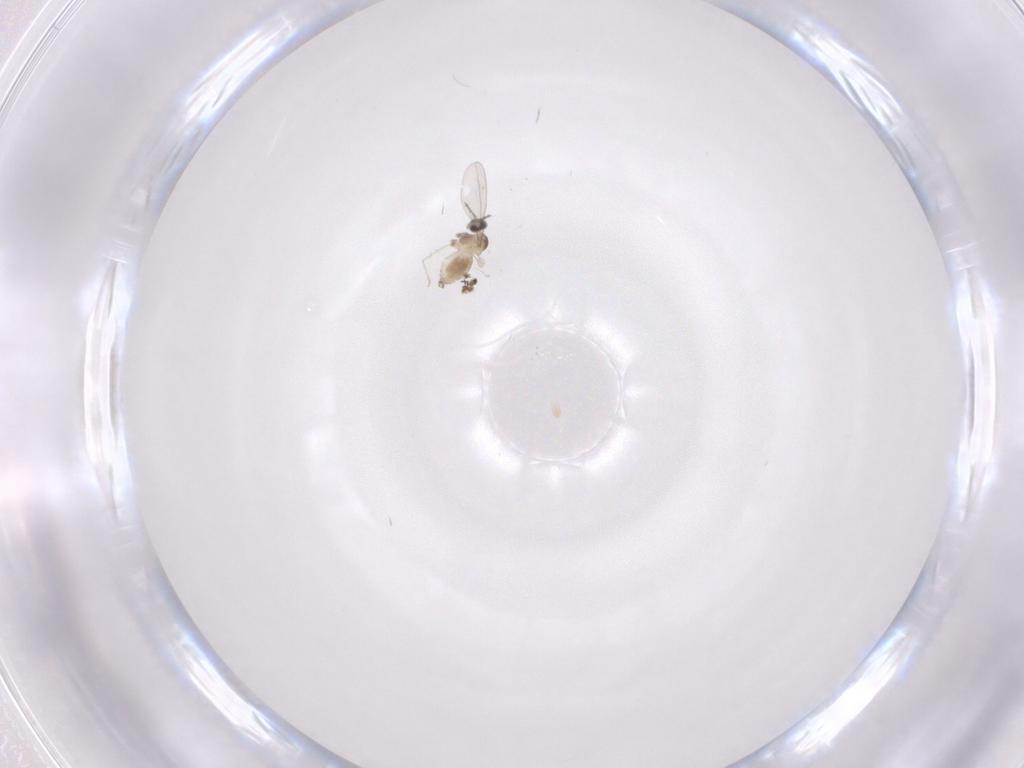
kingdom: Animalia
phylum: Arthropoda
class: Insecta
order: Diptera
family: Cecidomyiidae
